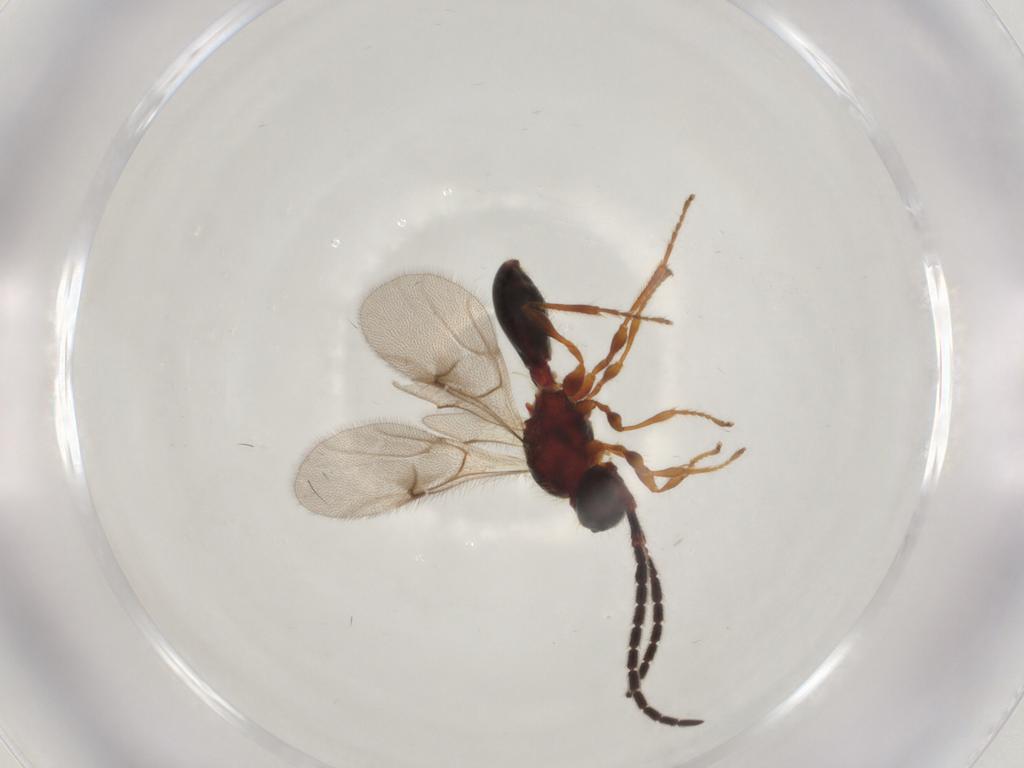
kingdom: Animalia
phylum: Arthropoda
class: Insecta
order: Hymenoptera
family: Diapriidae
